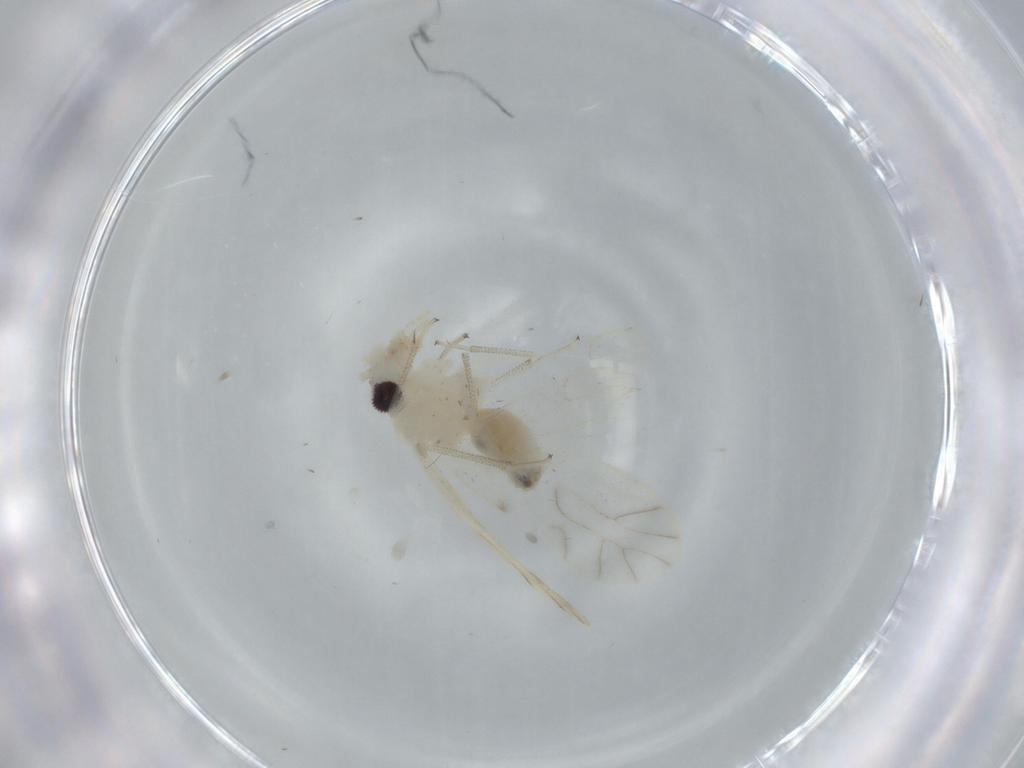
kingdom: Animalia
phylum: Arthropoda
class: Insecta
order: Psocodea
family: Caeciliusidae
